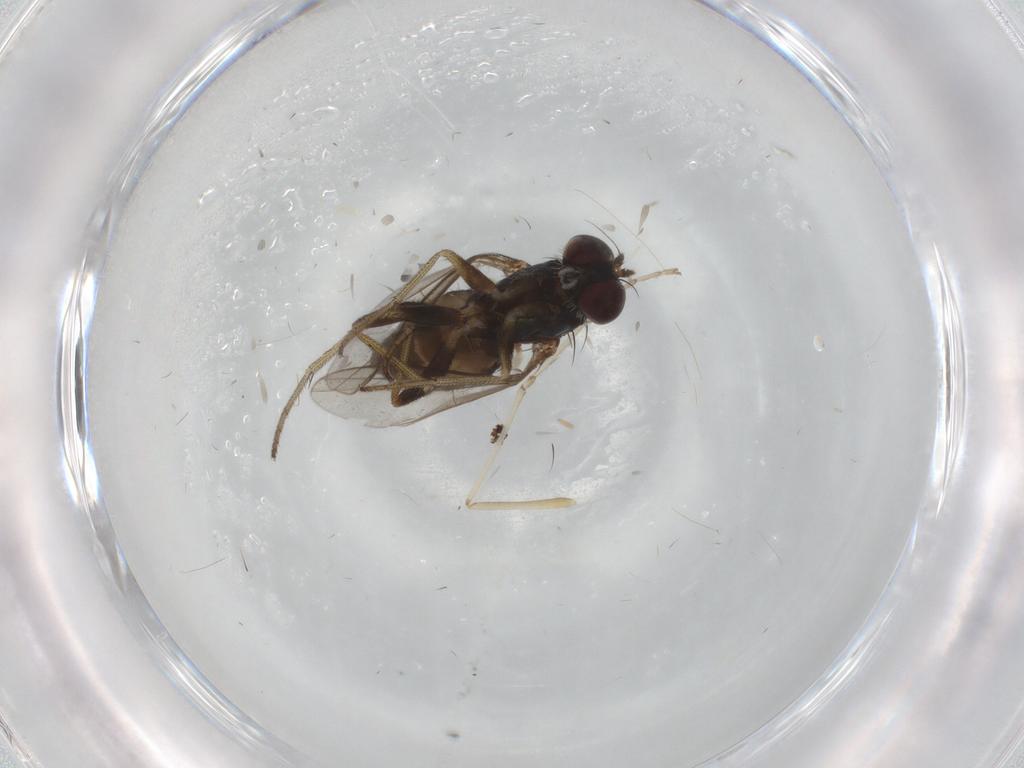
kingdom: Animalia
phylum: Arthropoda
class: Insecta
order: Diptera
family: Dolichopodidae
